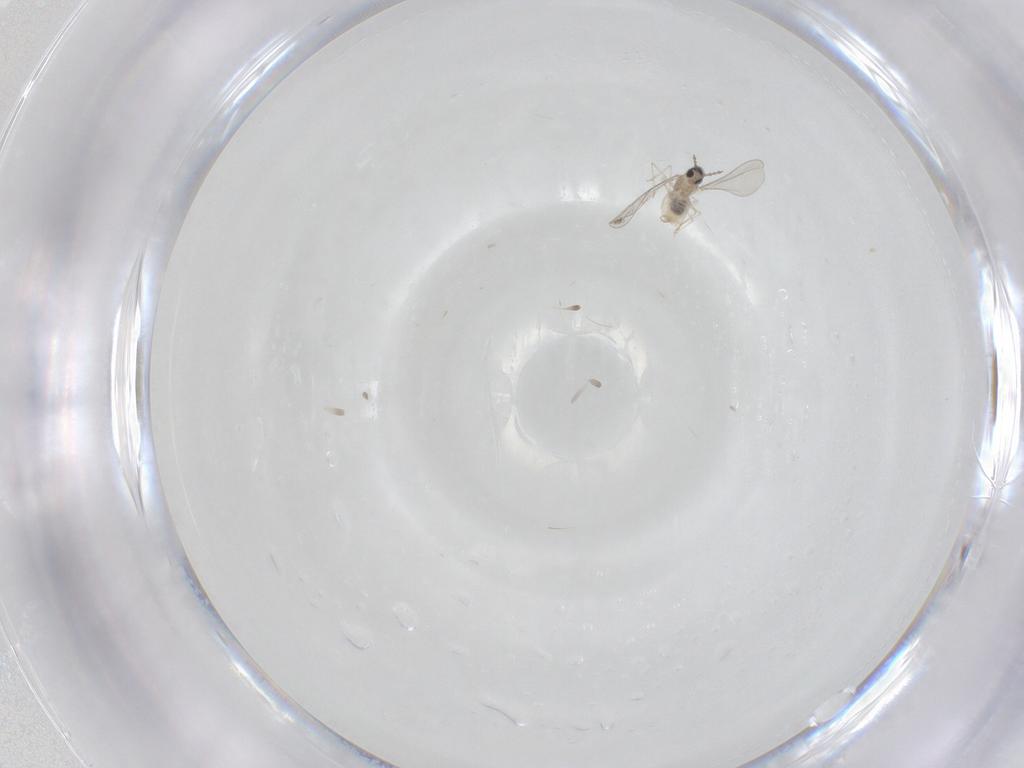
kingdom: Animalia
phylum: Arthropoda
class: Insecta
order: Diptera
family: Cecidomyiidae
